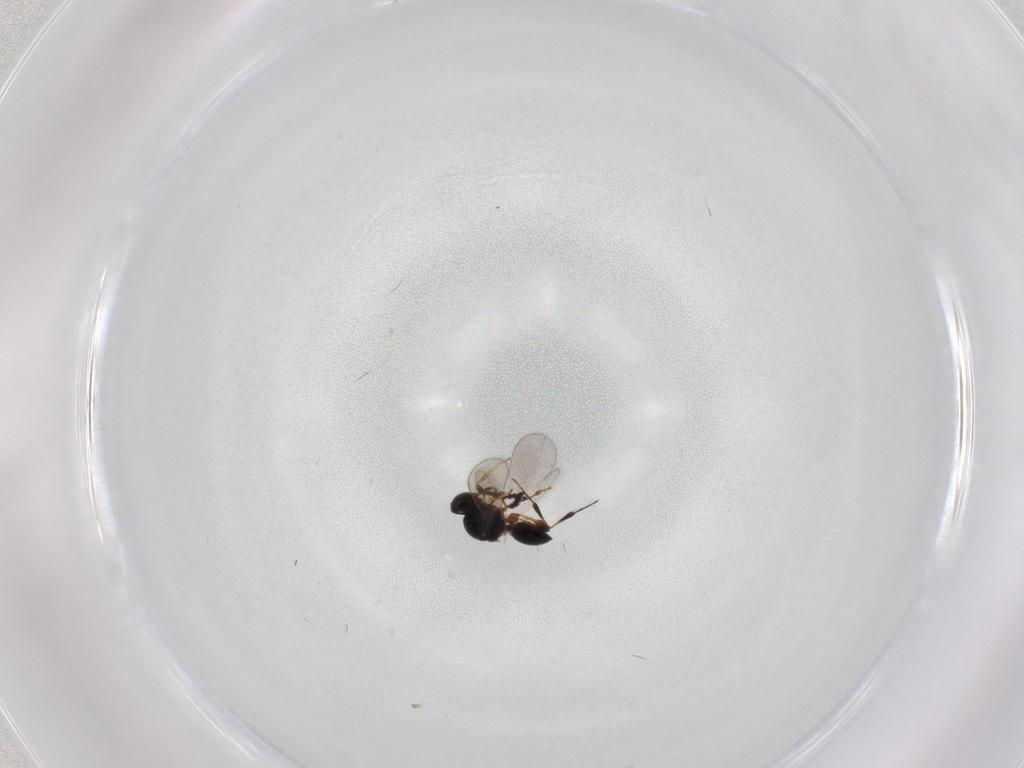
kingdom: Animalia
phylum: Arthropoda
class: Insecta
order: Hymenoptera
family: Platygastridae
